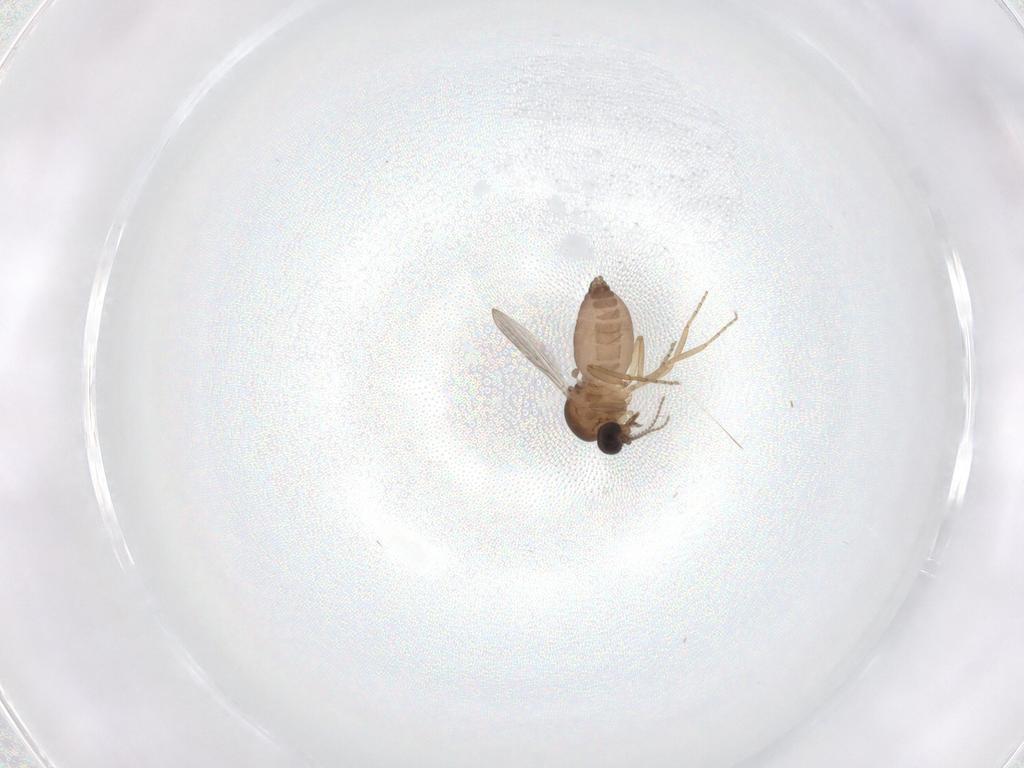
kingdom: Animalia
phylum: Arthropoda
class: Insecta
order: Diptera
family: Ceratopogonidae
